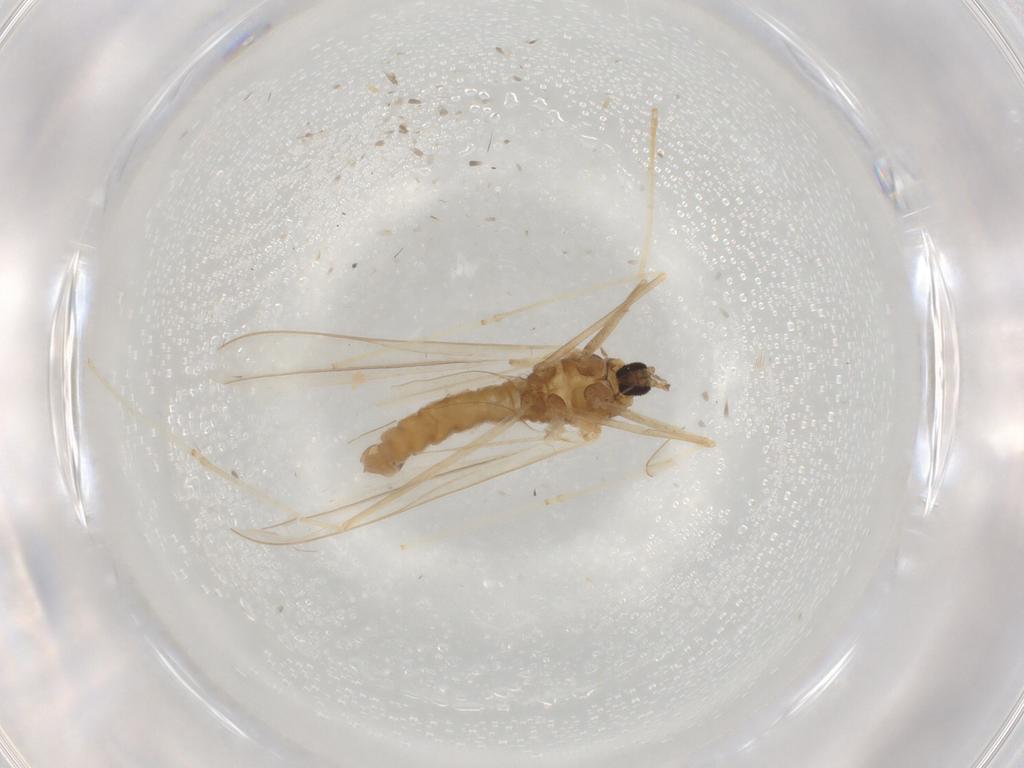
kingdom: Animalia
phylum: Arthropoda
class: Insecta
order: Diptera
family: Cecidomyiidae
